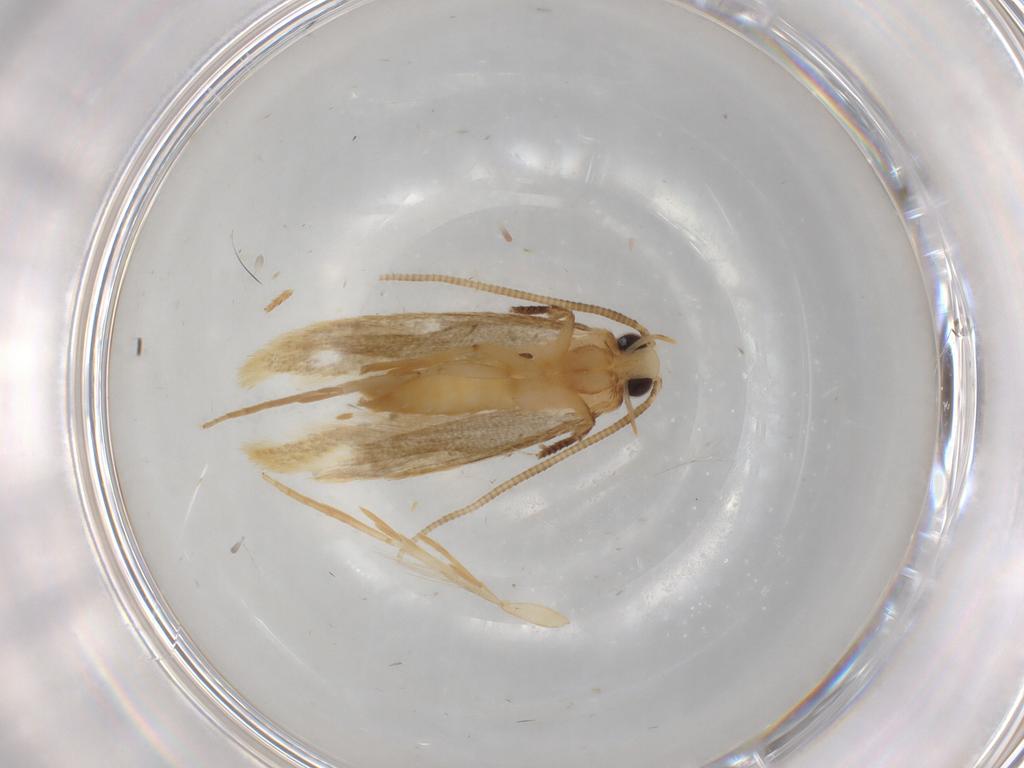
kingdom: Animalia
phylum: Arthropoda
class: Insecta
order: Lepidoptera
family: Tineidae
